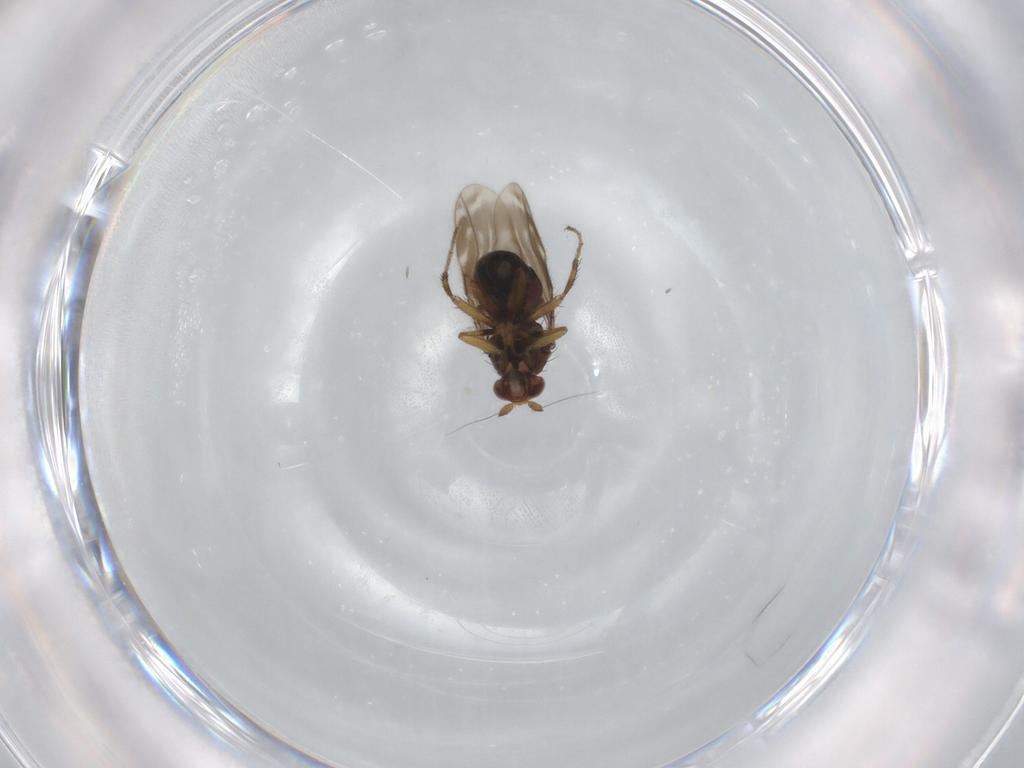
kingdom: Animalia
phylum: Arthropoda
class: Insecta
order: Diptera
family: Sphaeroceridae
